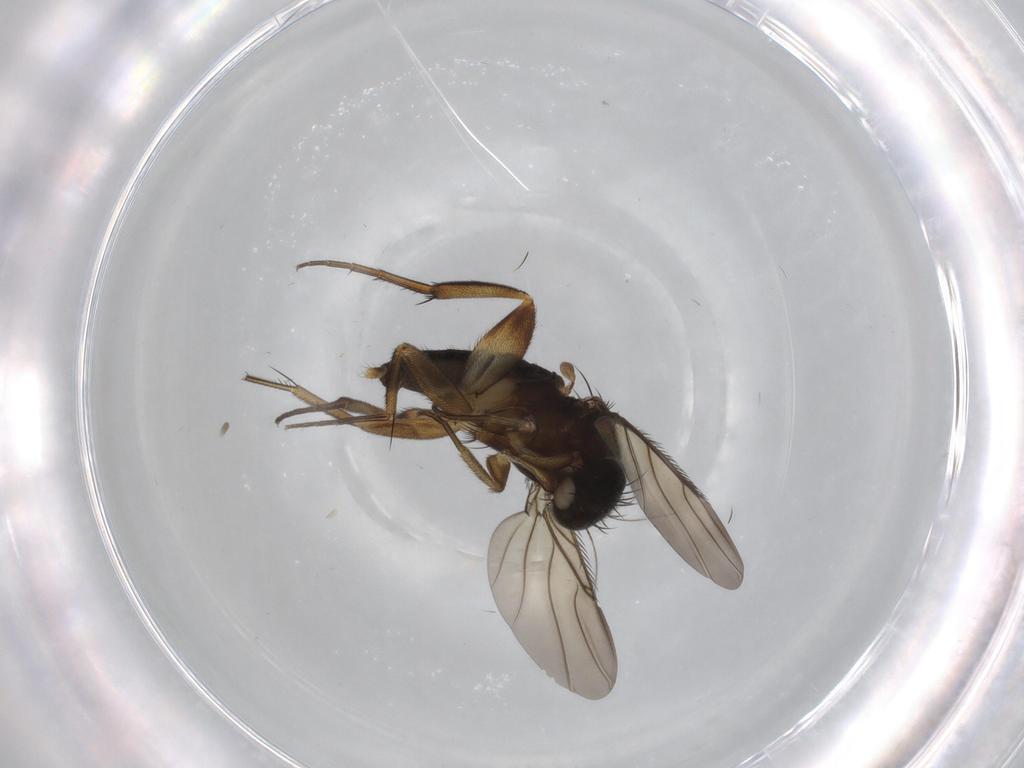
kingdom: Animalia
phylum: Arthropoda
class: Insecta
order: Diptera
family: Phoridae
